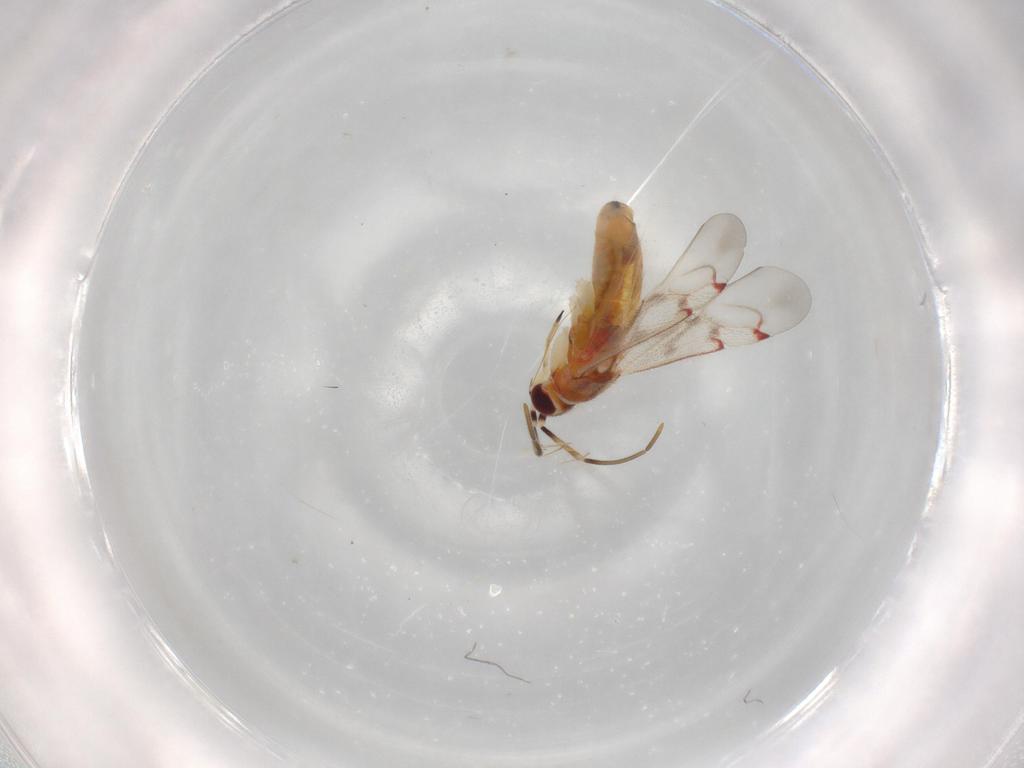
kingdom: Animalia
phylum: Arthropoda
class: Insecta
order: Hemiptera
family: Miridae
